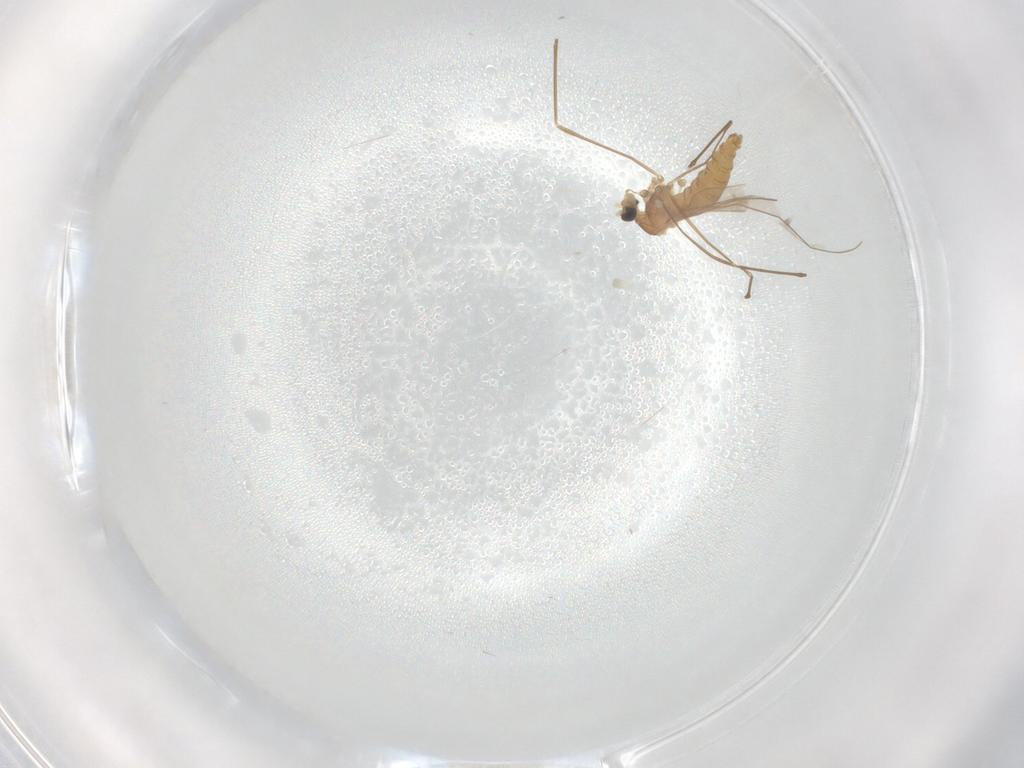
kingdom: Animalia
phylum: Arthropoda
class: Insecta
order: Diptera
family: Cecidomyiidae
